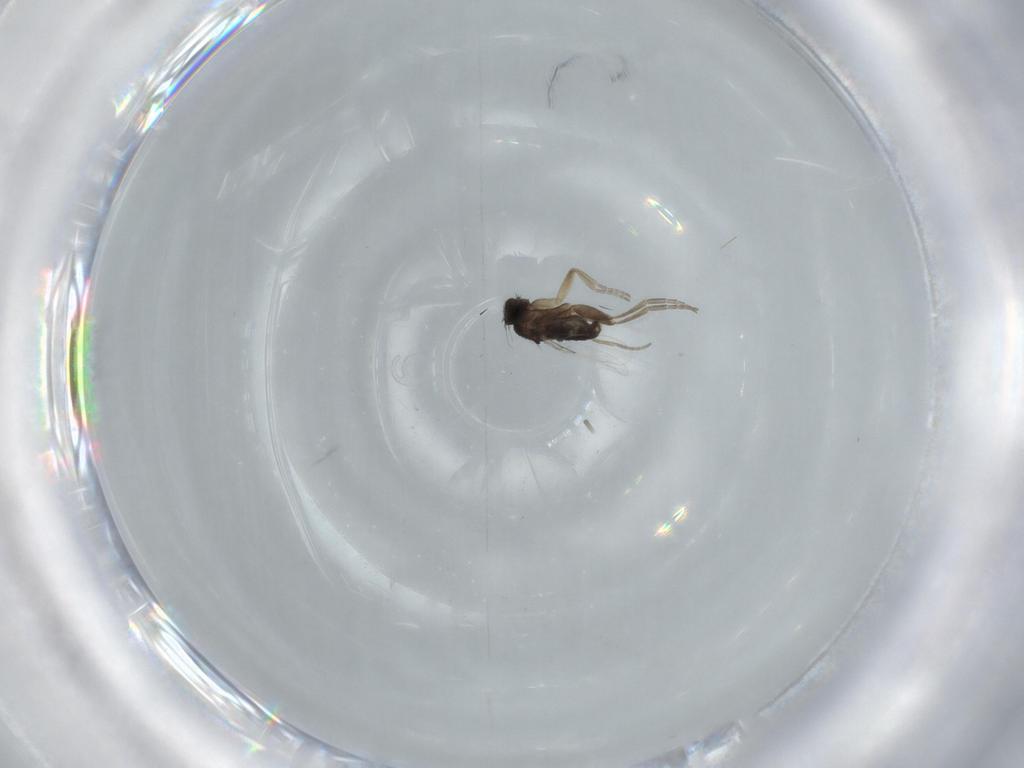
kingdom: Animalia
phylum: Arthropoda
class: Insecta
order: Diptera
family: Phoridae
